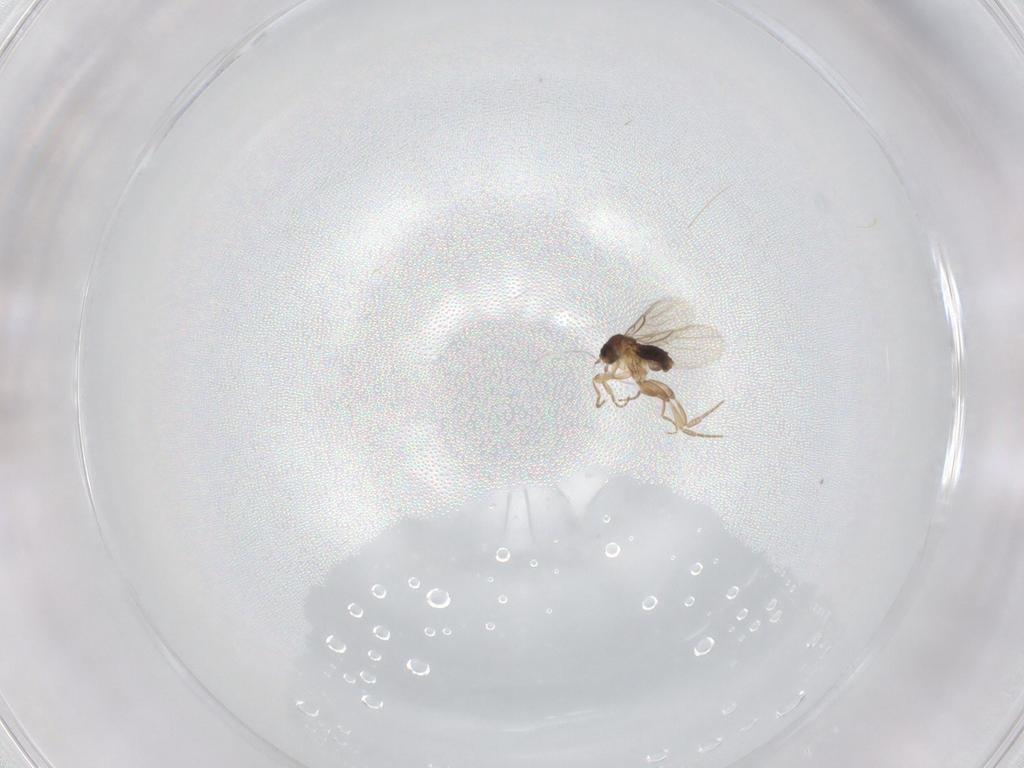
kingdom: Animalia
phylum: Arthropoda
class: Insecta
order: Diptera
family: Phoridae
